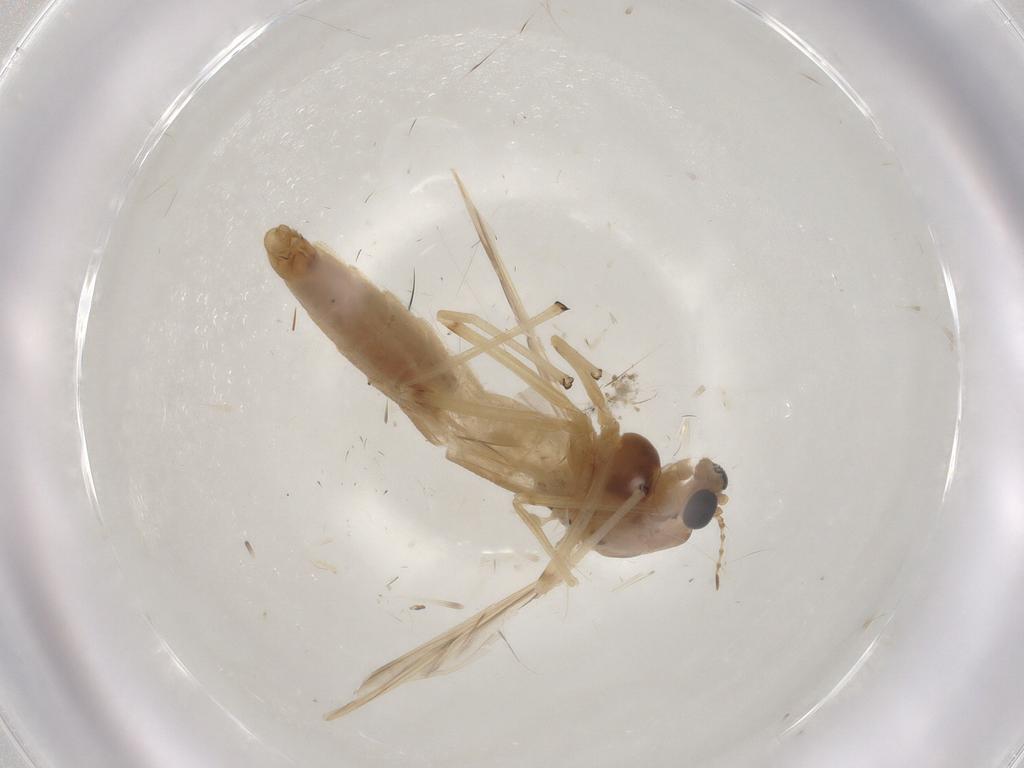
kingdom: Animalia
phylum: Arthropoda
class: Insecta
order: Diptera
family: Chironomidae
